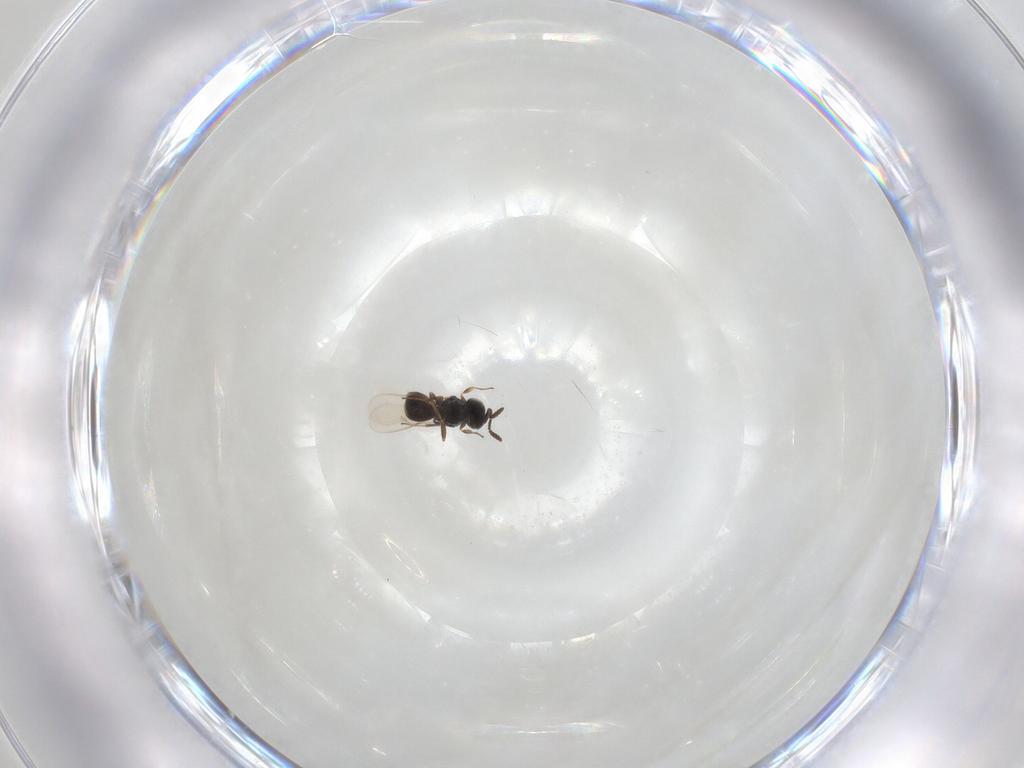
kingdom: Animalia
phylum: Arthropoda
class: Insecta
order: Hymenoptera
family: Scelionidae
